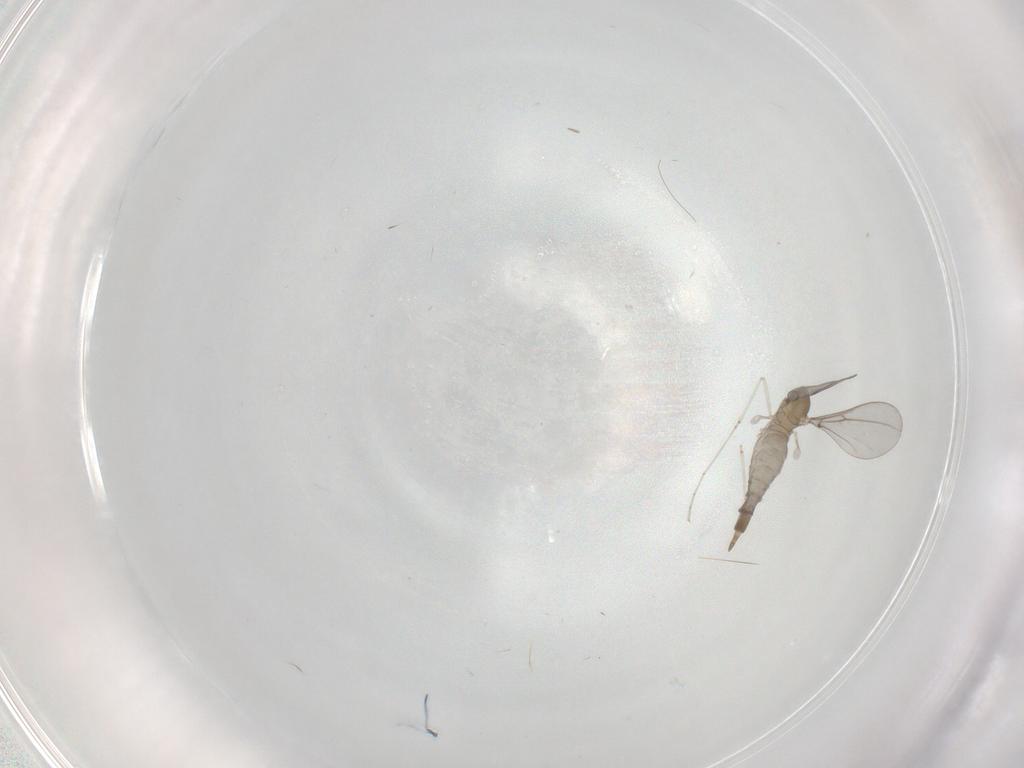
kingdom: Animalia
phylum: Arthropoda
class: Insecta
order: Diptera
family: Cecidomyiidae
